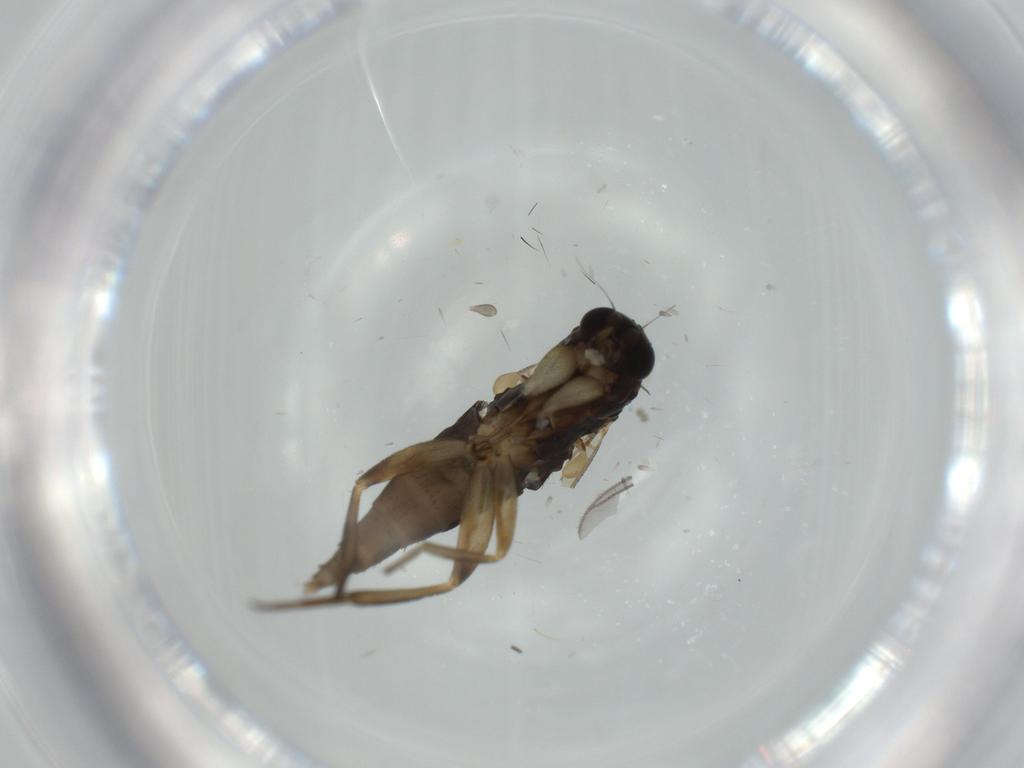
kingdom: Animalia
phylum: Arthropoda
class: Insecta
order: Diptera
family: Phoridae
